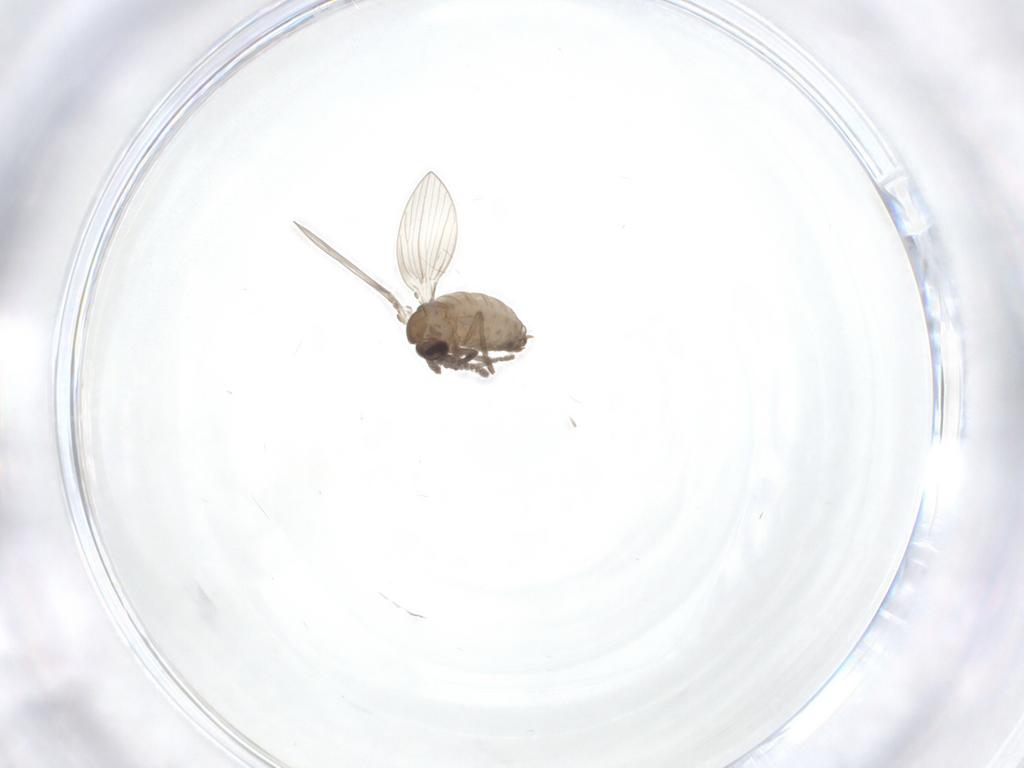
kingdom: Animalia
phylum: Arthropoda
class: Insecta
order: Diptera
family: Psychodidae
